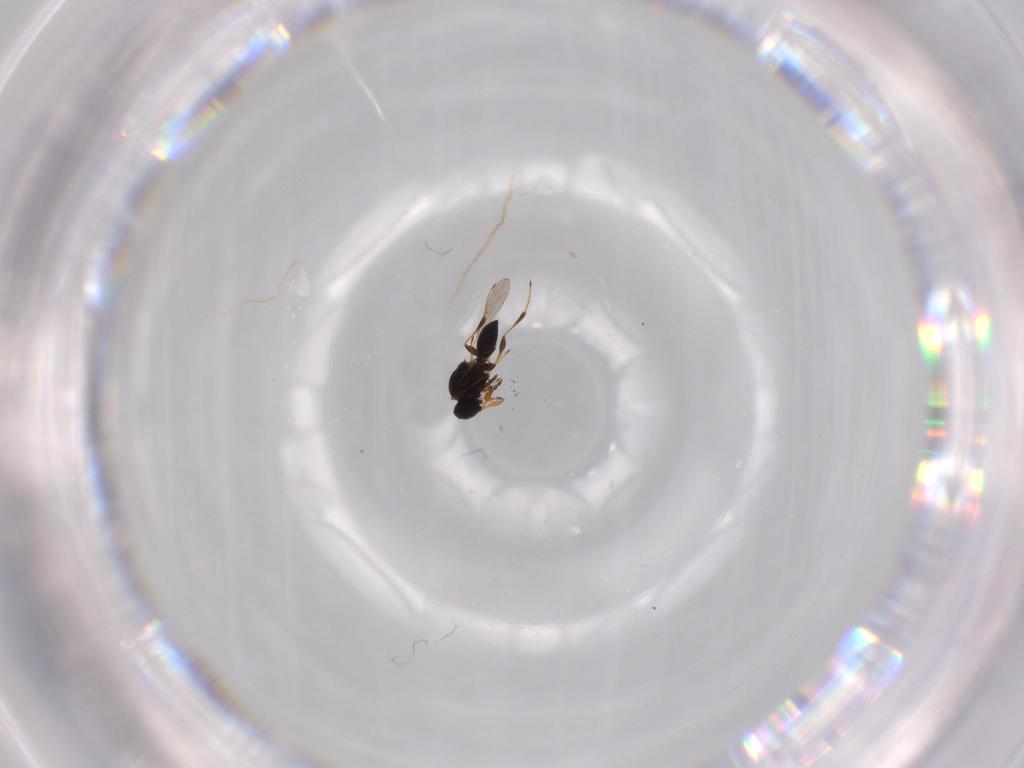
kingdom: Animalia
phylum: Arthropoda
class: Insecta
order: Hymenoptera
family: Platygastridae
